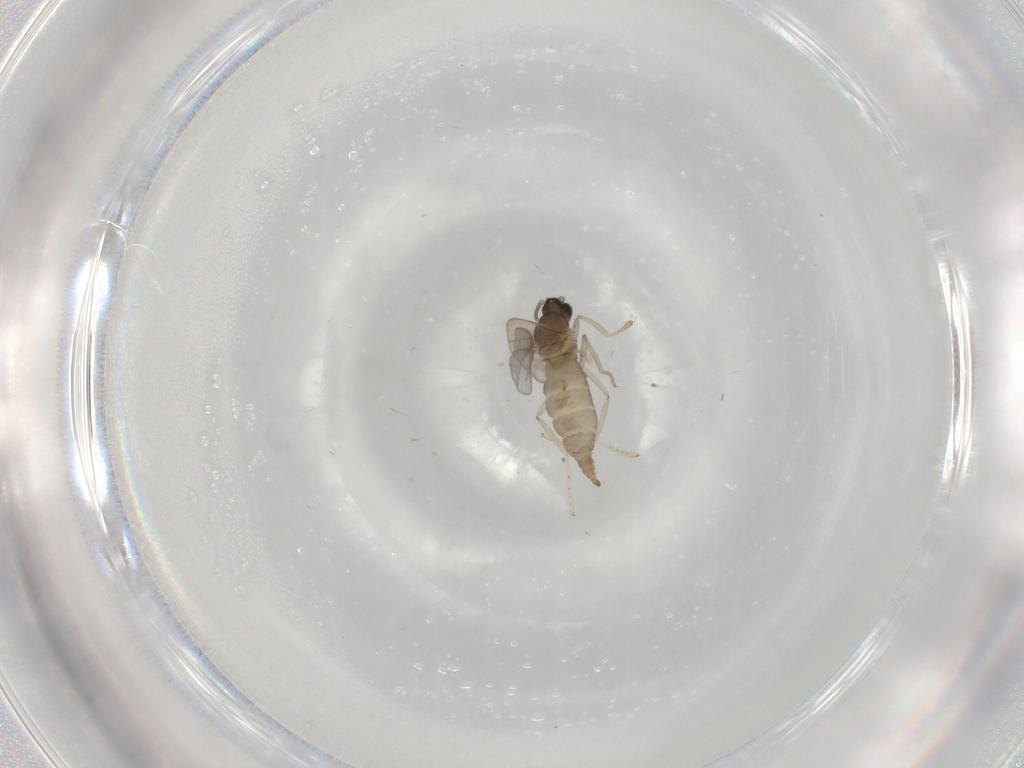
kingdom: Animalia
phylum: Arthropoda
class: Insecta
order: Diptera
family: Cecidomyiidae
